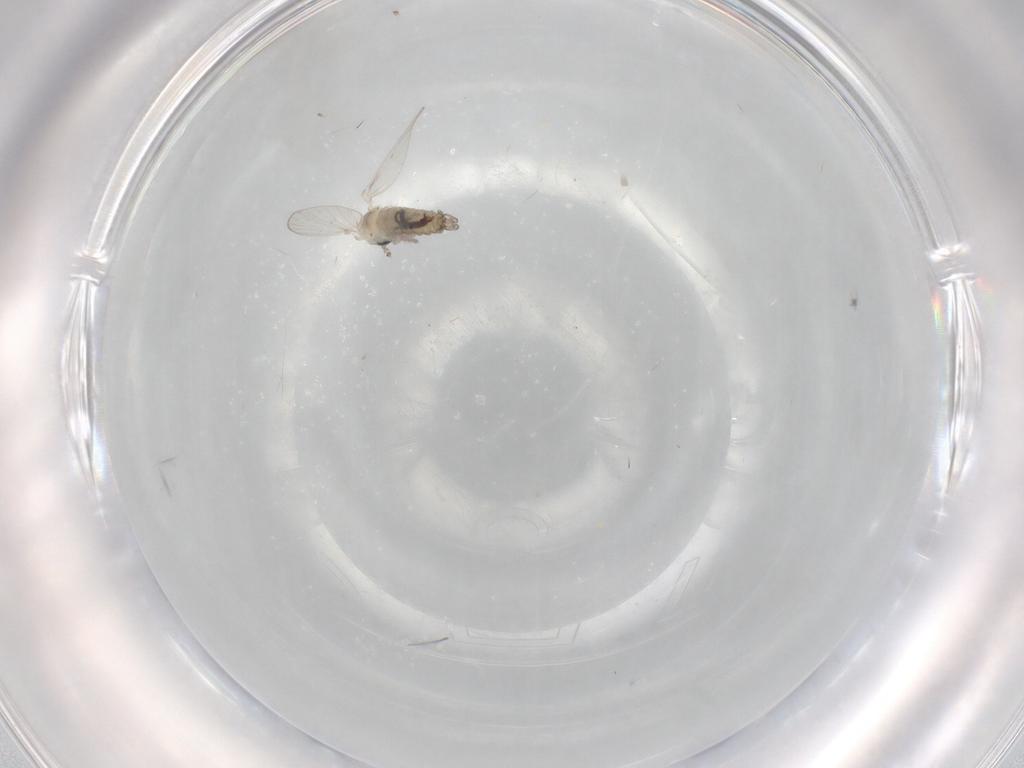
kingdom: Animalia
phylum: Arthropoda
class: Insecta
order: Diptera
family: Psychodidae
